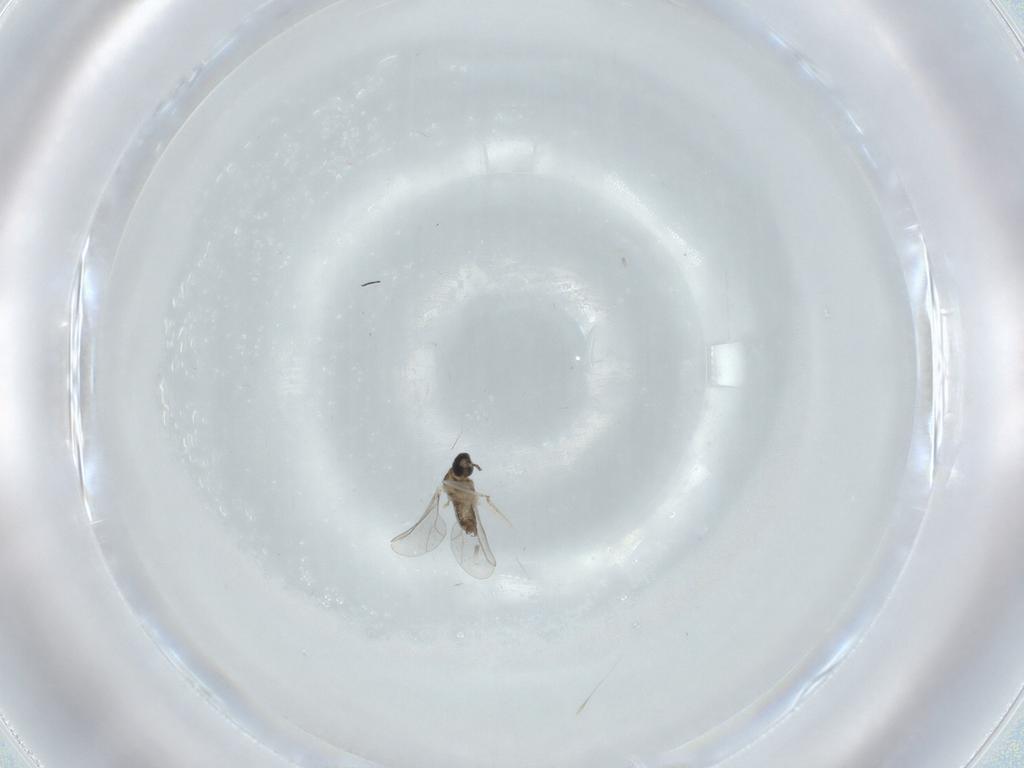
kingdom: Animalia
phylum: Arthropoda
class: Insecta
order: Diptera
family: Cecidomyiidae
